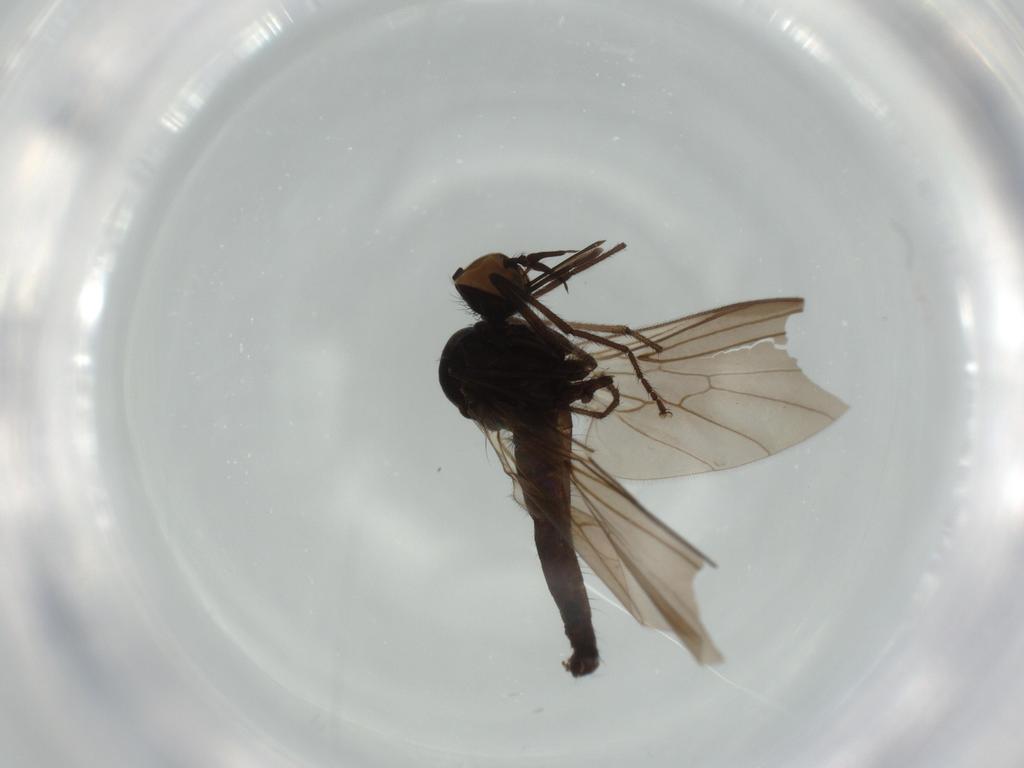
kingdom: Animalia
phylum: Arthropoda
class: Insecta
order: Diptera
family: Empididae
